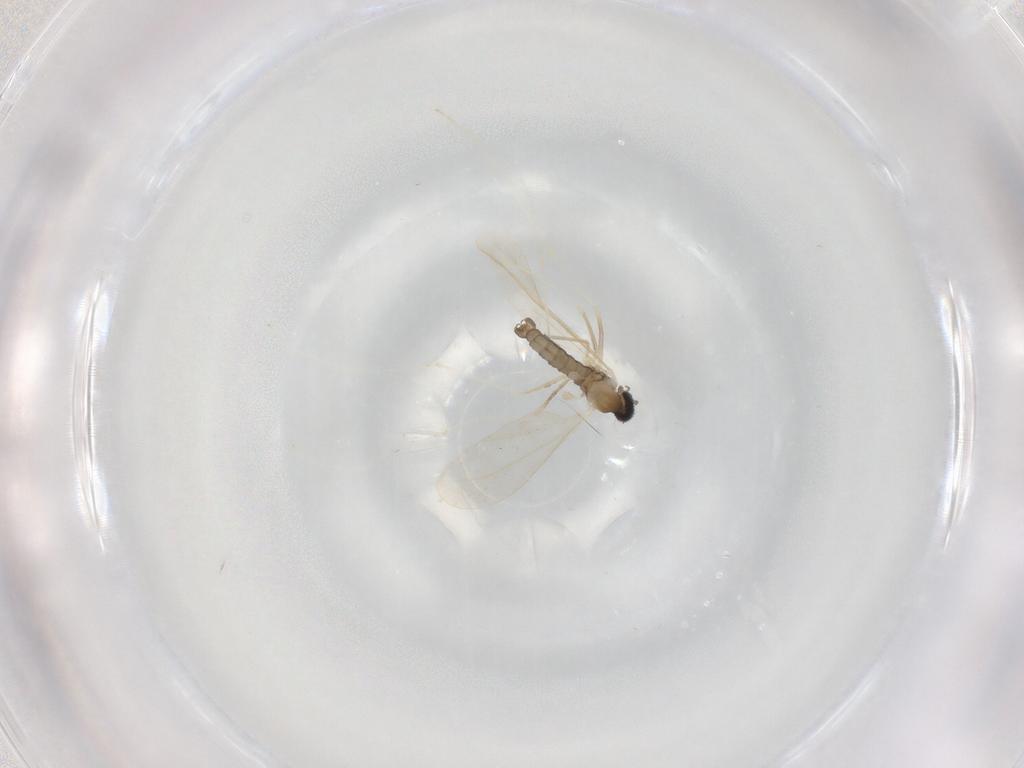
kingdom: Animalia
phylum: Arthropoda
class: Insecta
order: Diptera
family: Cecidomyiidae
